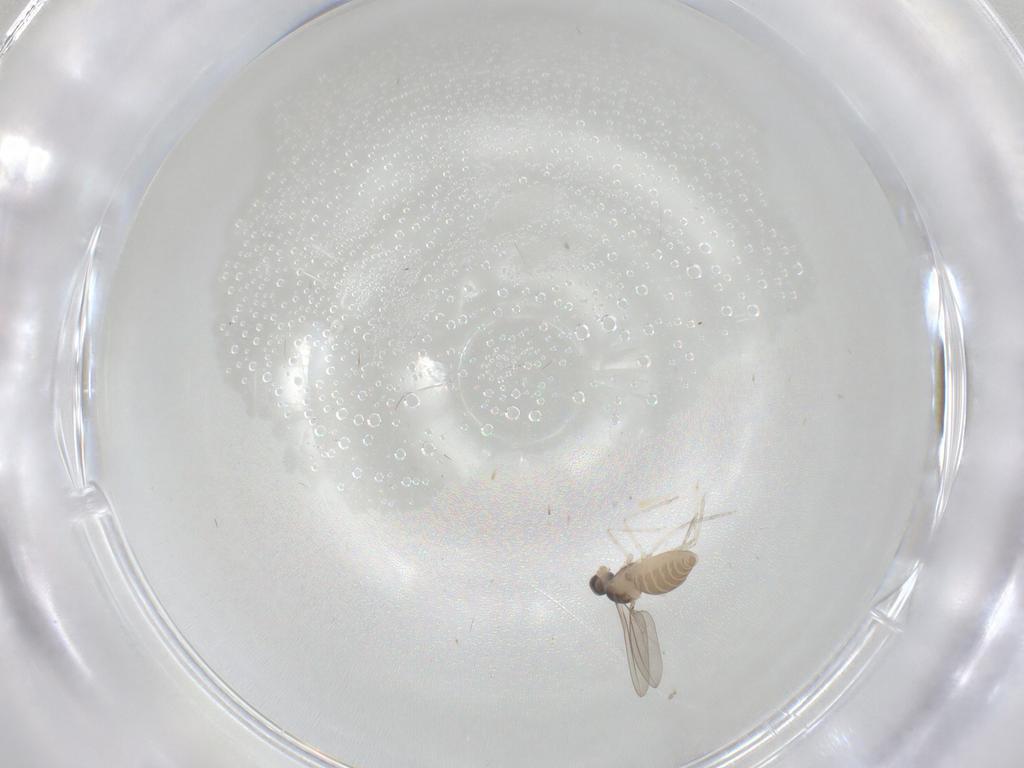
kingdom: Animalia
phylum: Arthropoda
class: Insecta
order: Diptera
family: Cecidomyiidae
